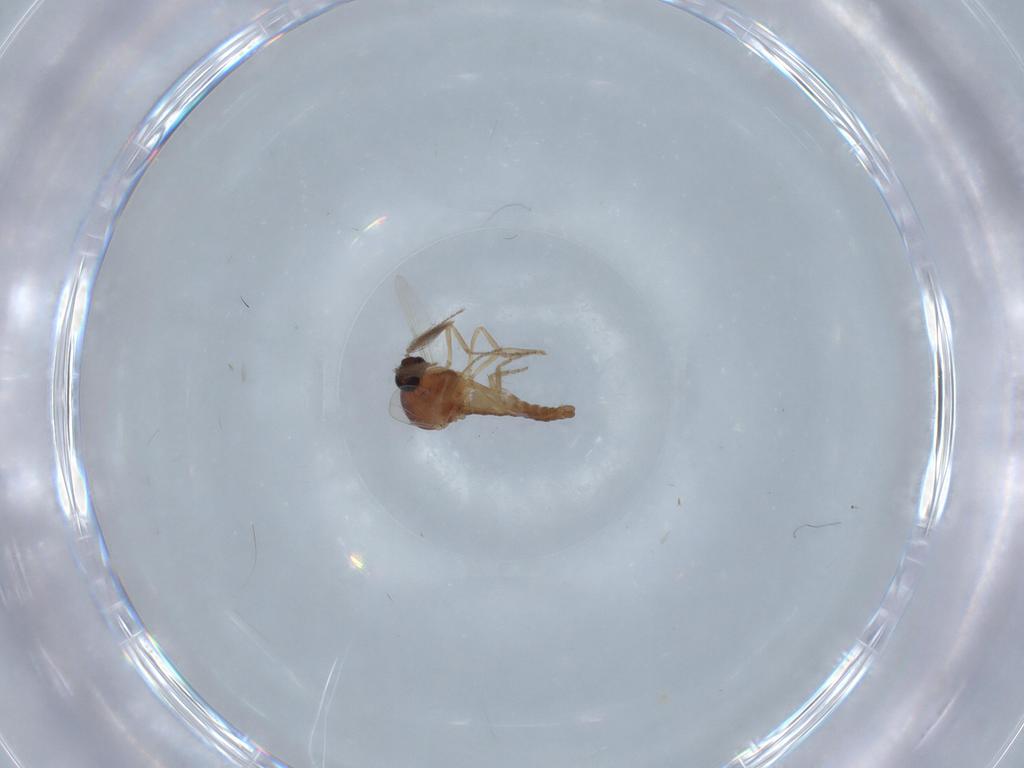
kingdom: Animalia
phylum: Arthropoda
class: Insecta
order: Diptera
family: Ceratopogonidae
